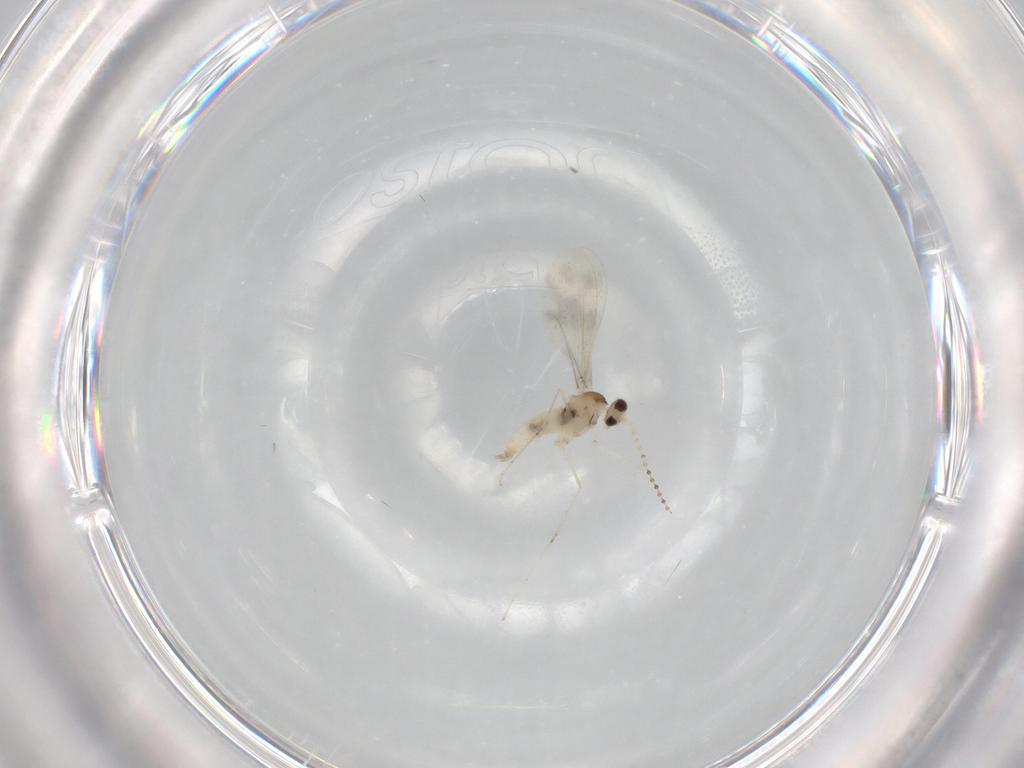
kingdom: Animalia
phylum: Arthropoda
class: Insecta
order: Diptera
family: Cecidomyiidae
